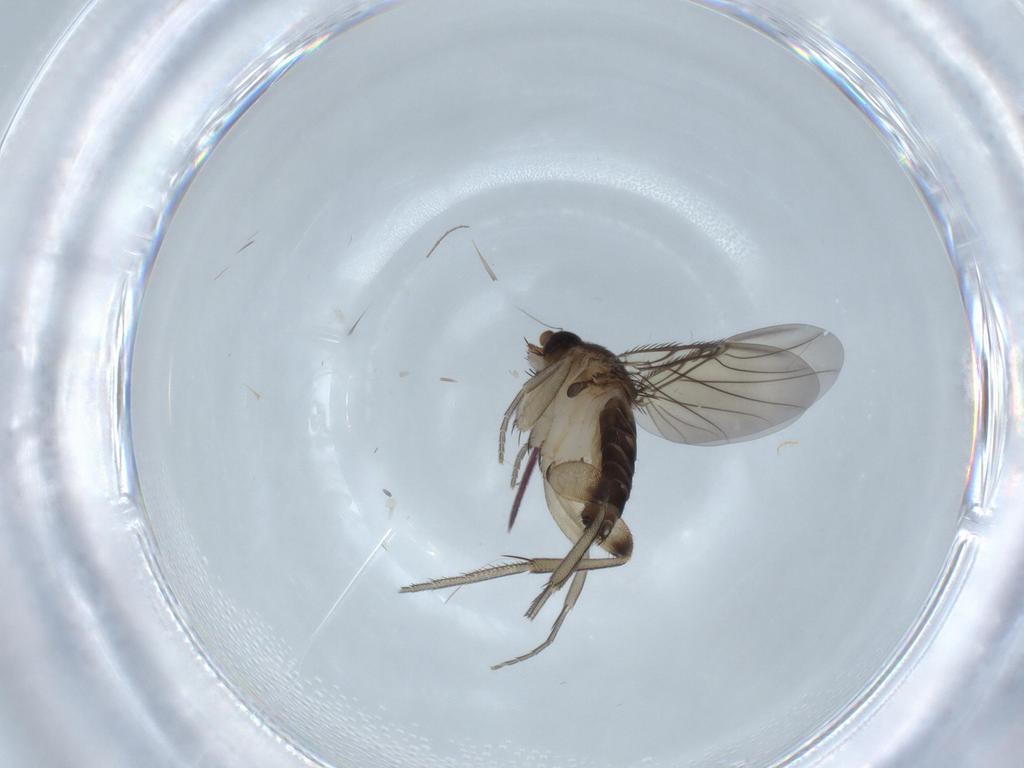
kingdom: Animalia
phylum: Arthropoda
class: Insecta
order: Diptera
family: Phoridae
